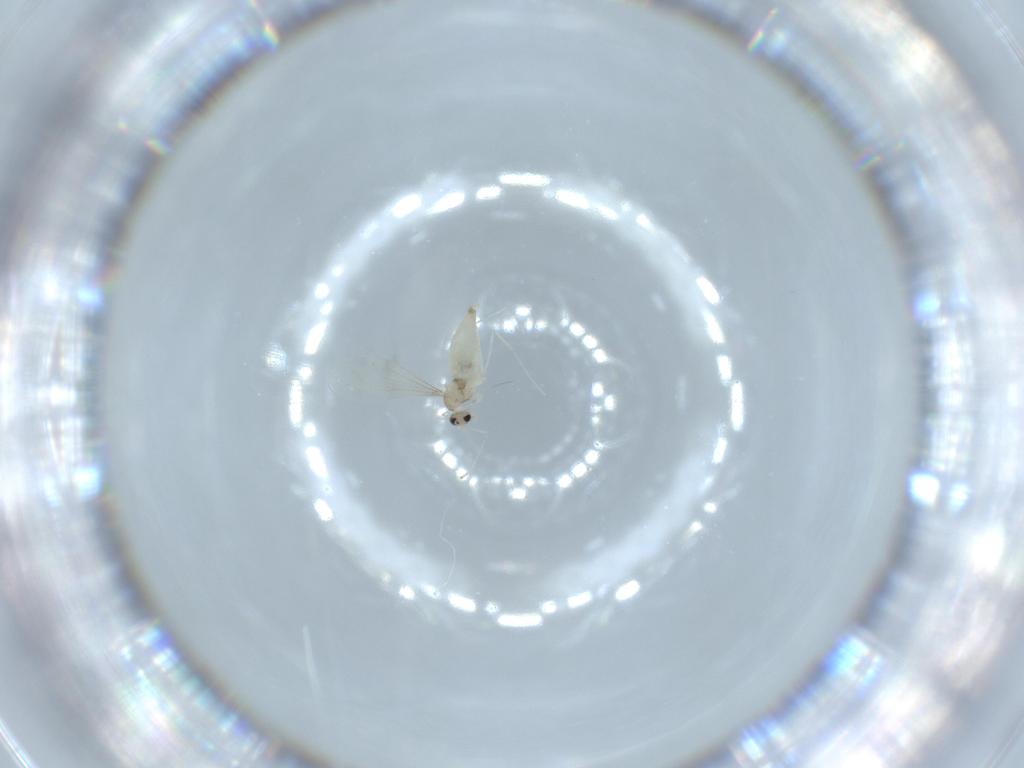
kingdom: Animalia
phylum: Arthropoda
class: Insecta
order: Diptera
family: Cecidomyiidae
